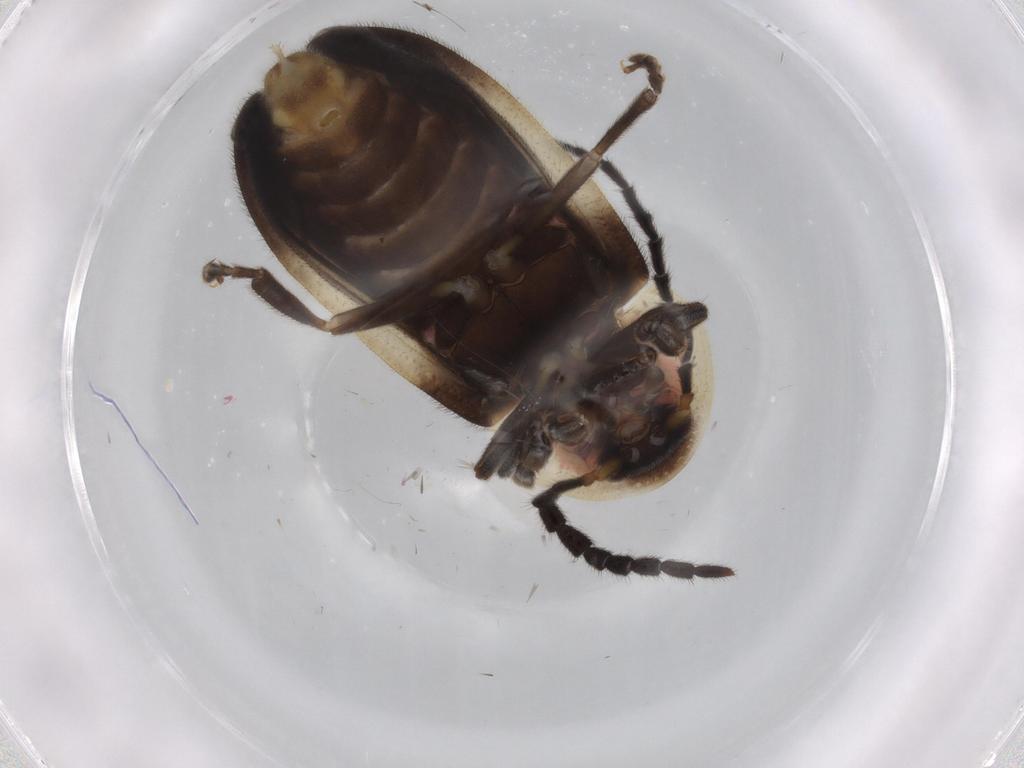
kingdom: Animalia
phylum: Arthropoda
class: Insecta
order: Coleoptera
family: Lampyridae
